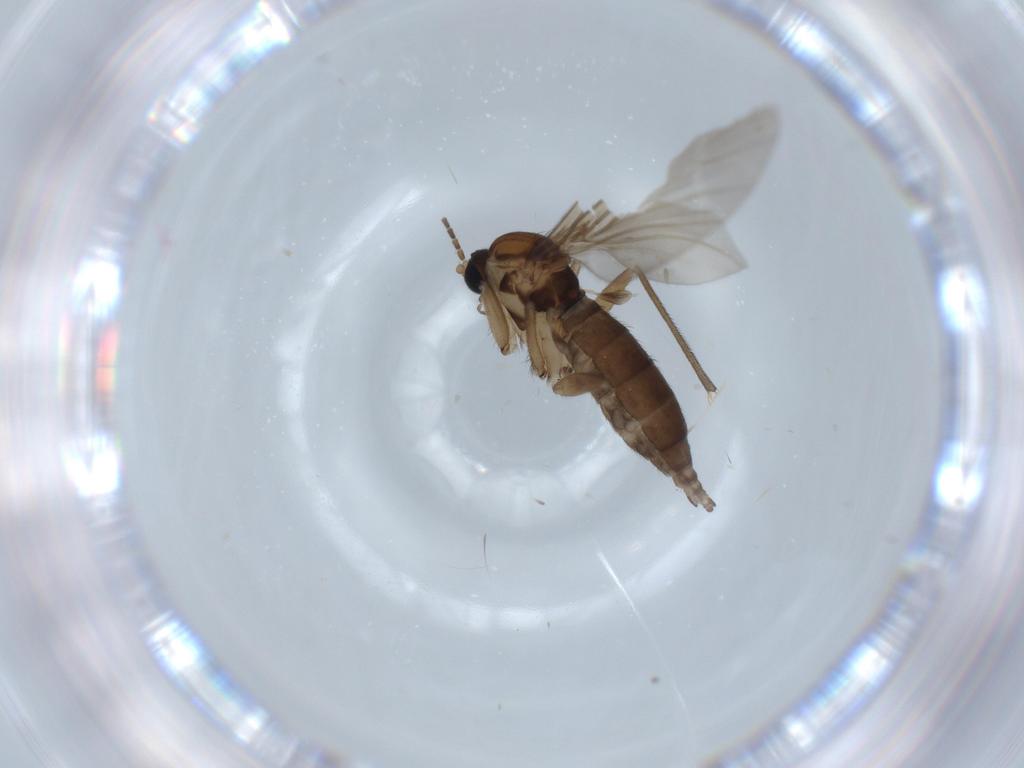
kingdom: Animalia
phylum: Arthropoda
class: Insecta
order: Diptera
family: Sciaridae
